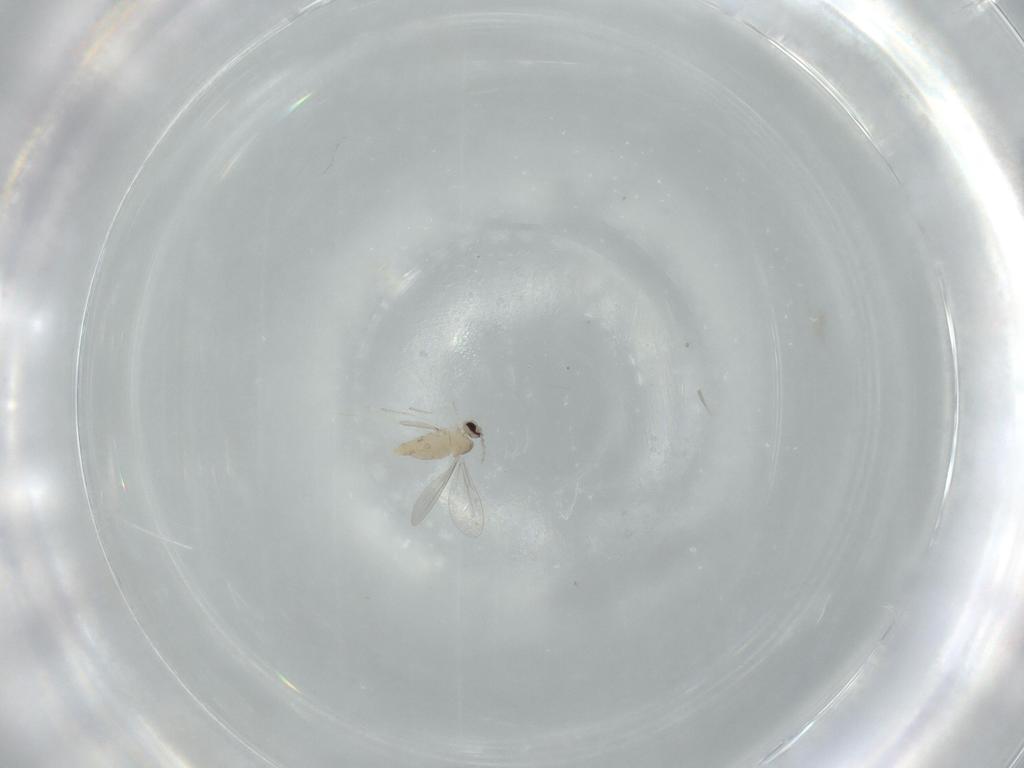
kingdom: Animalia
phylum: Arthropoda
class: Insecta
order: Diptera
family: Cecidomyiidae
